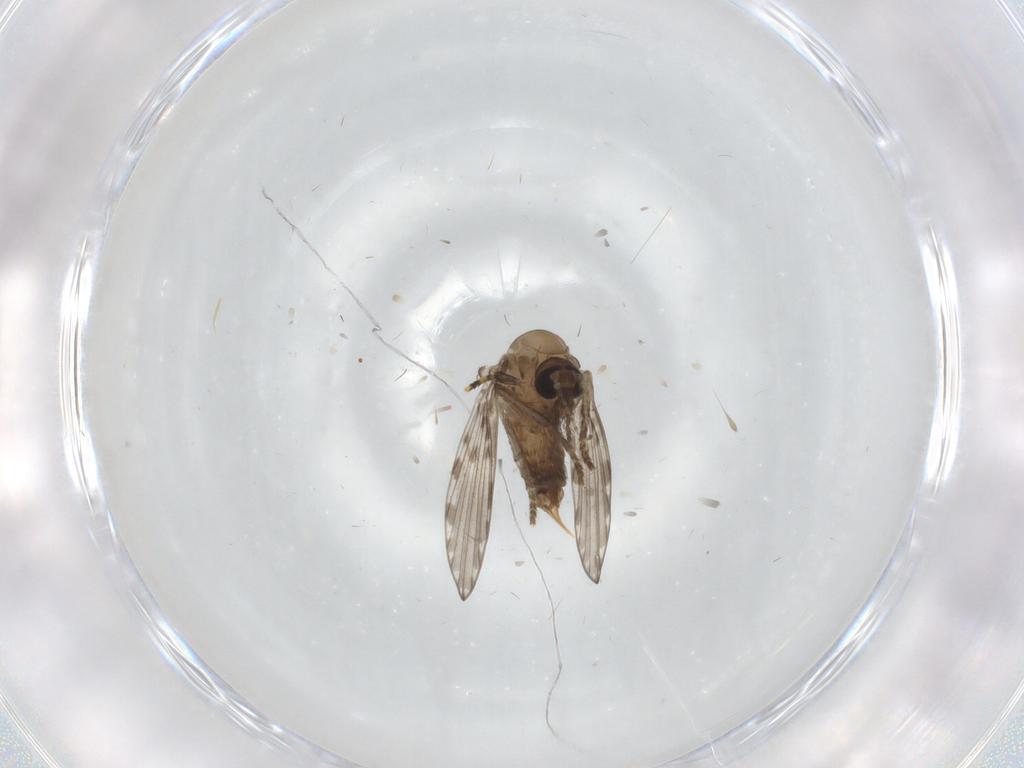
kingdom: Animalia
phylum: Arthropoda
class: Insecta
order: Diptera
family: Psychodidae
